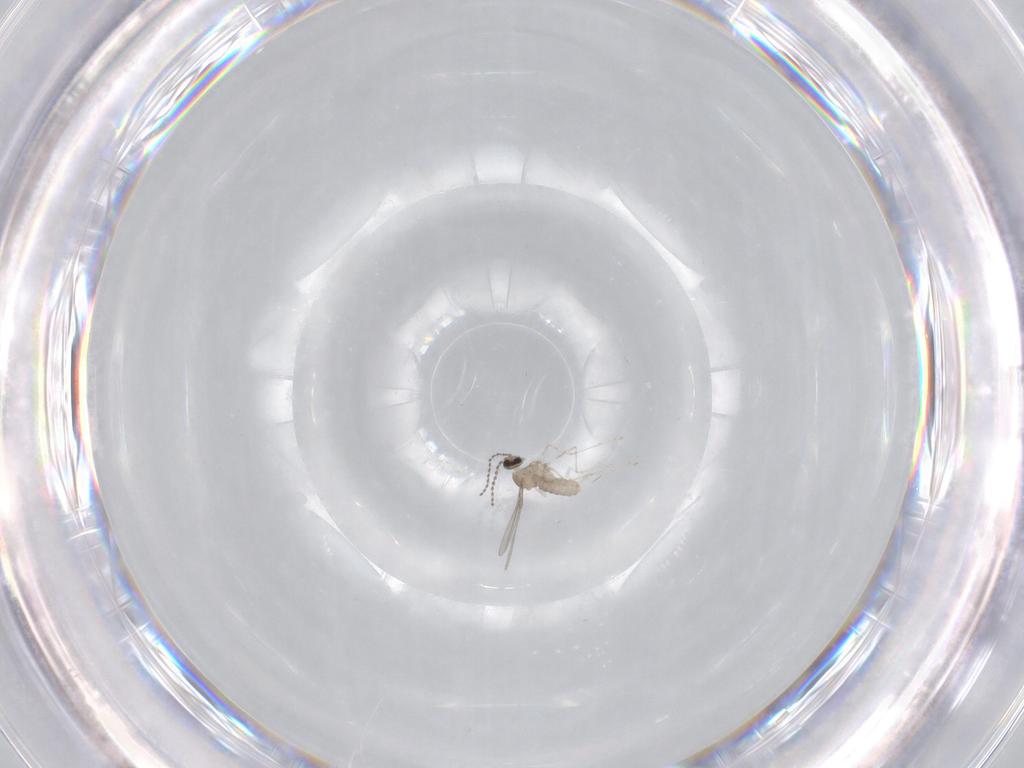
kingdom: Animalia
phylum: Arthropoda
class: Insecta
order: Diptera
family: Cecidomyiidae
